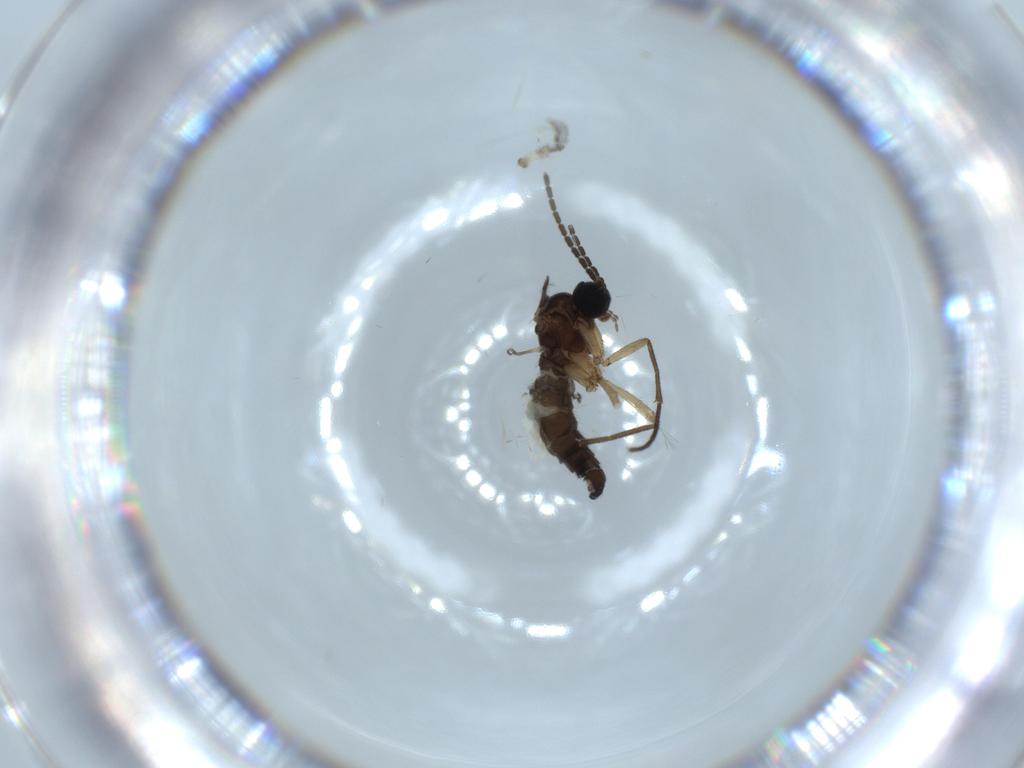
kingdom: Animalia
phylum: Arthropoda
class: Insecta
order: Diptera
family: Sciaridae
